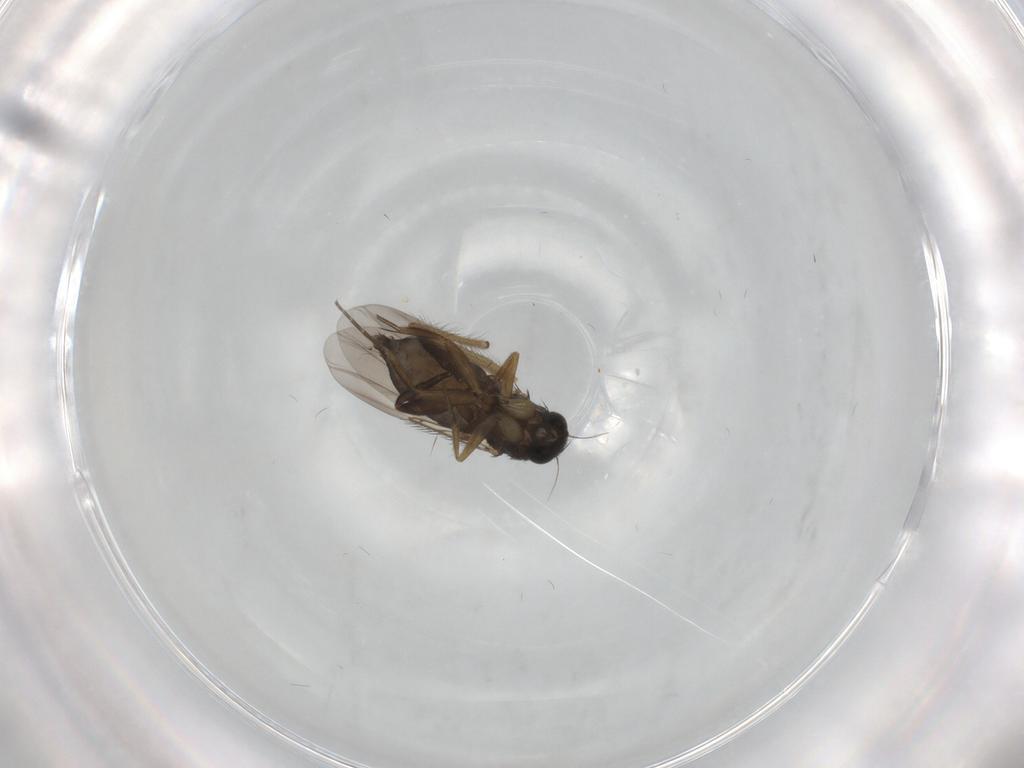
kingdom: Animalia
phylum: Arthropoda
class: Insecta
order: Diptera
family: Phoridae
